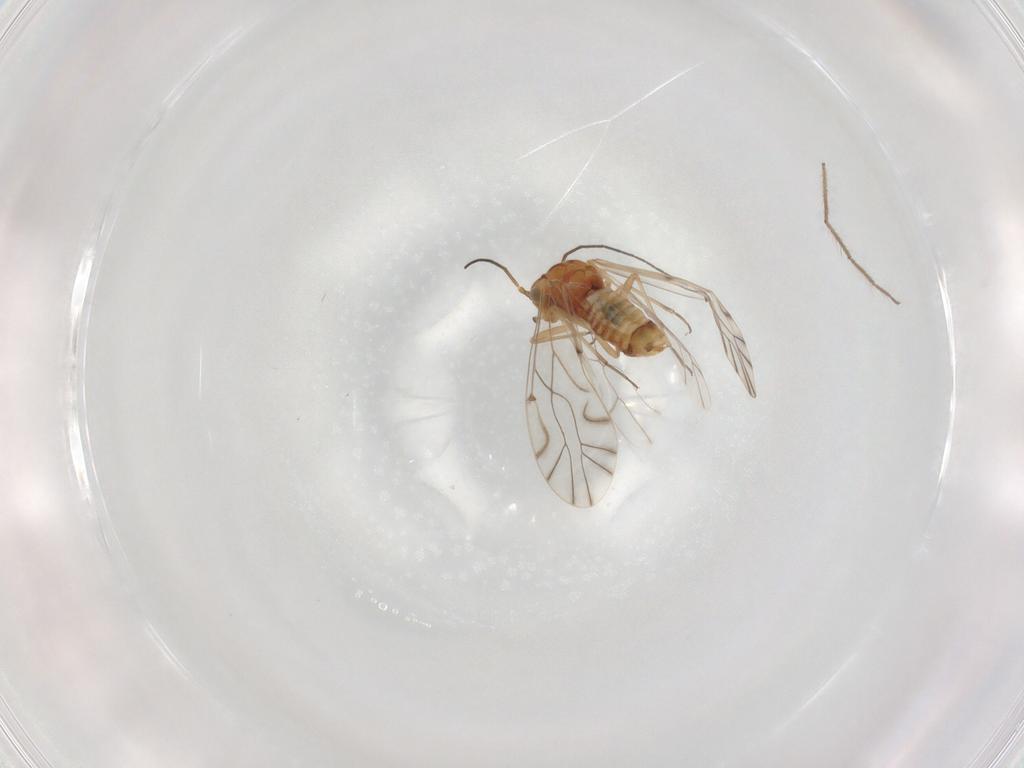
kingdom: Animalia
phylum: Arthropoda
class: Insecta
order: Psocodea
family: Lachesillidae
